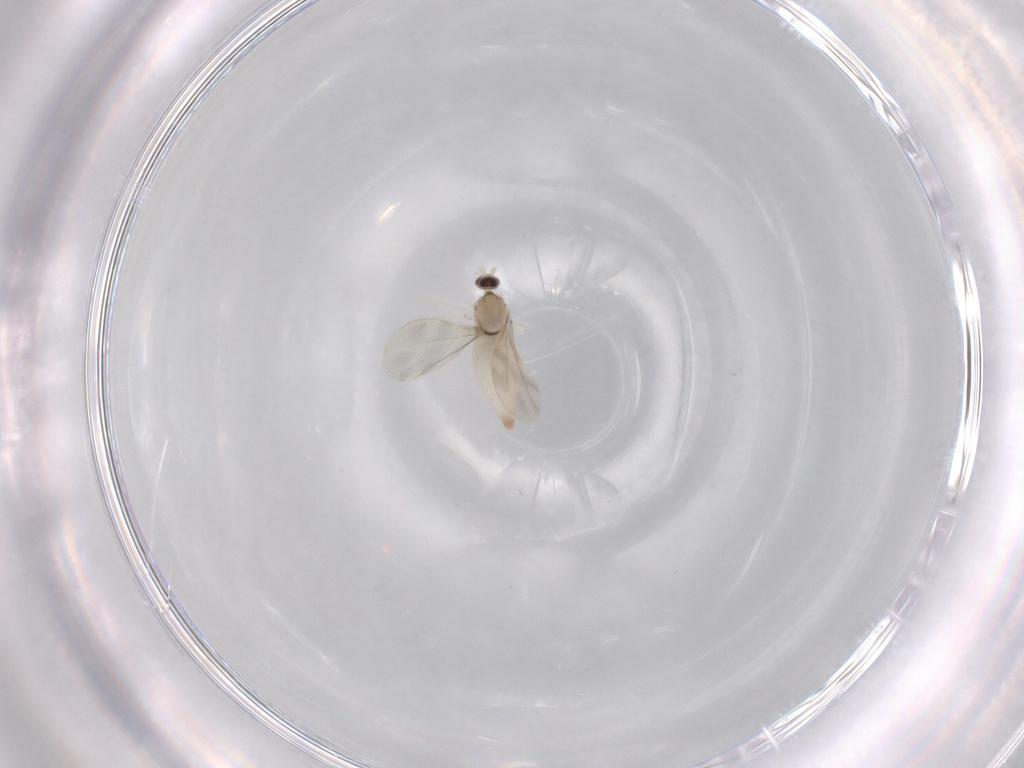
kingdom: Animalia
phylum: Arthropoda
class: Insecta
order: Diptera
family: Cecidomyiidae
